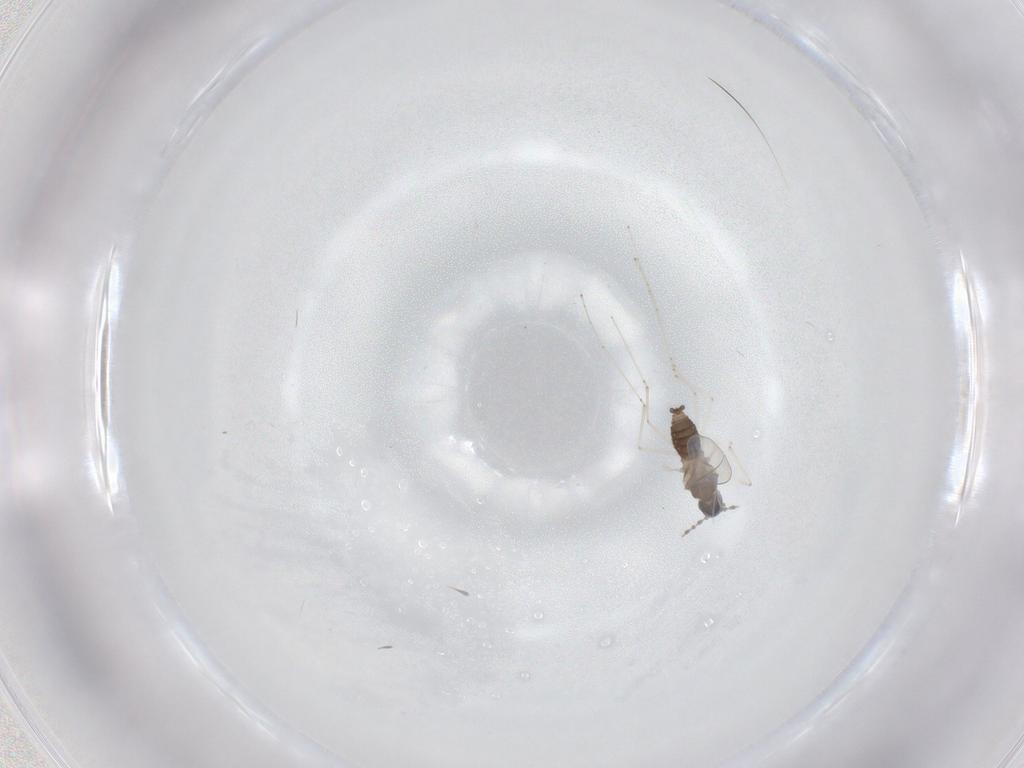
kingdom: Animalia
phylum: Arthropoda
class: Insecta
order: Diptera
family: Cecidomyiidae
